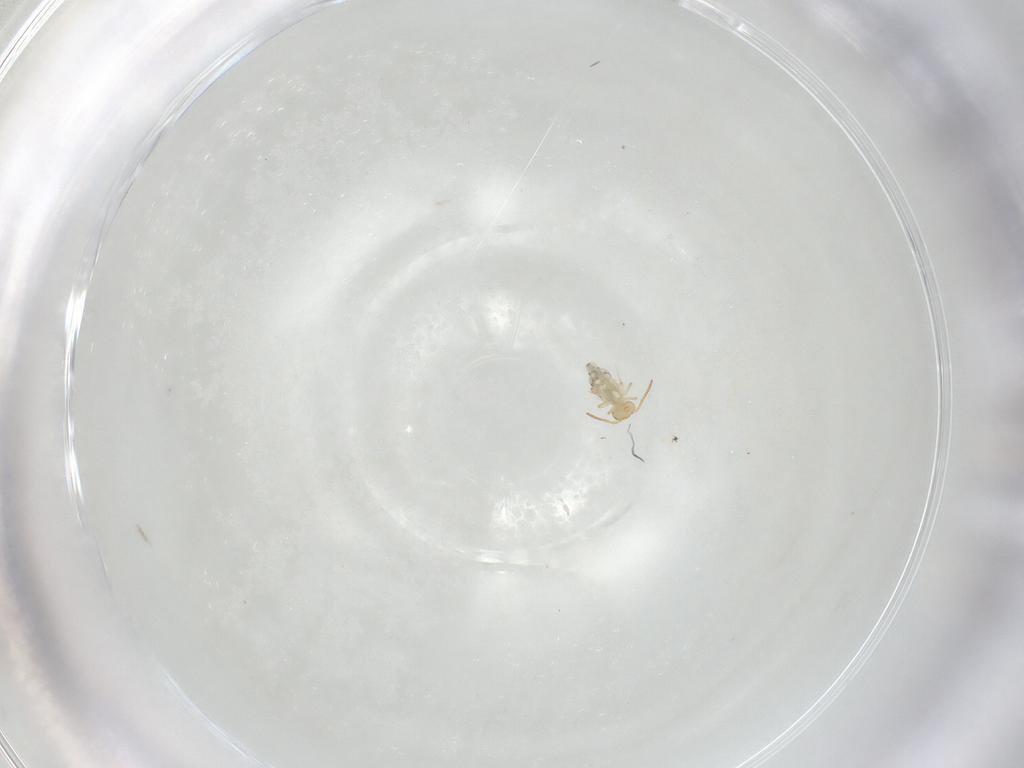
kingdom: Animalia
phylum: Arthropoda
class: Collembola
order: Symphypleona
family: Bourletiellidae
